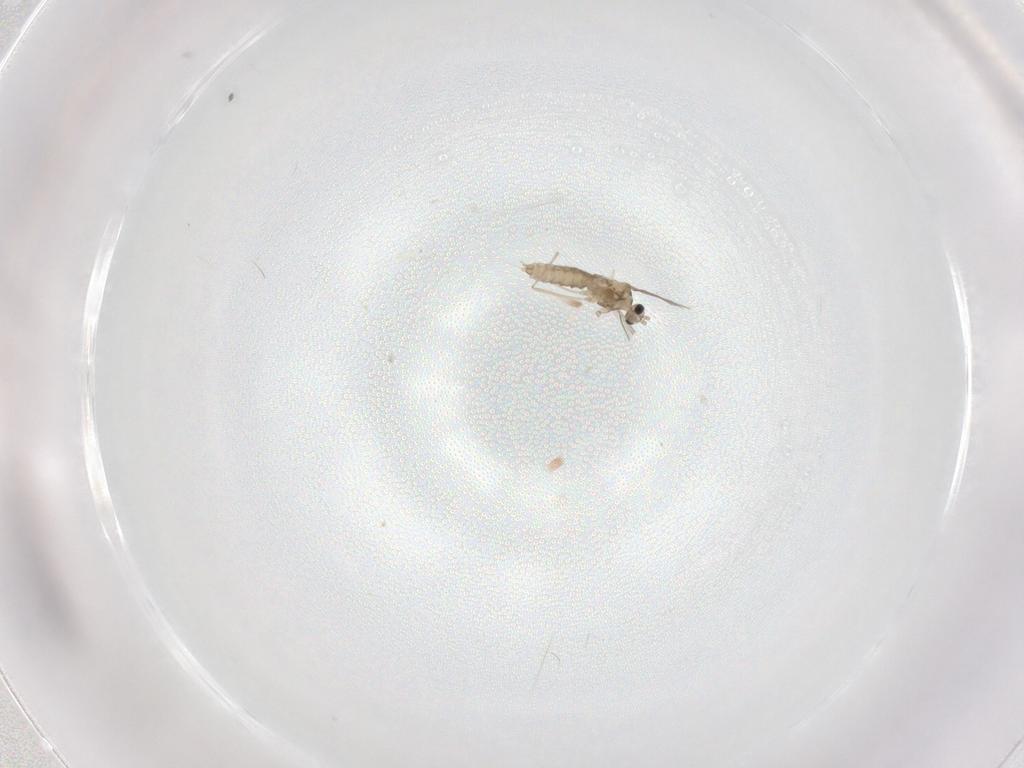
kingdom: Animalia
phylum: Arthropoda
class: Insecta
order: Diptera
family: Cecidomyiidae
